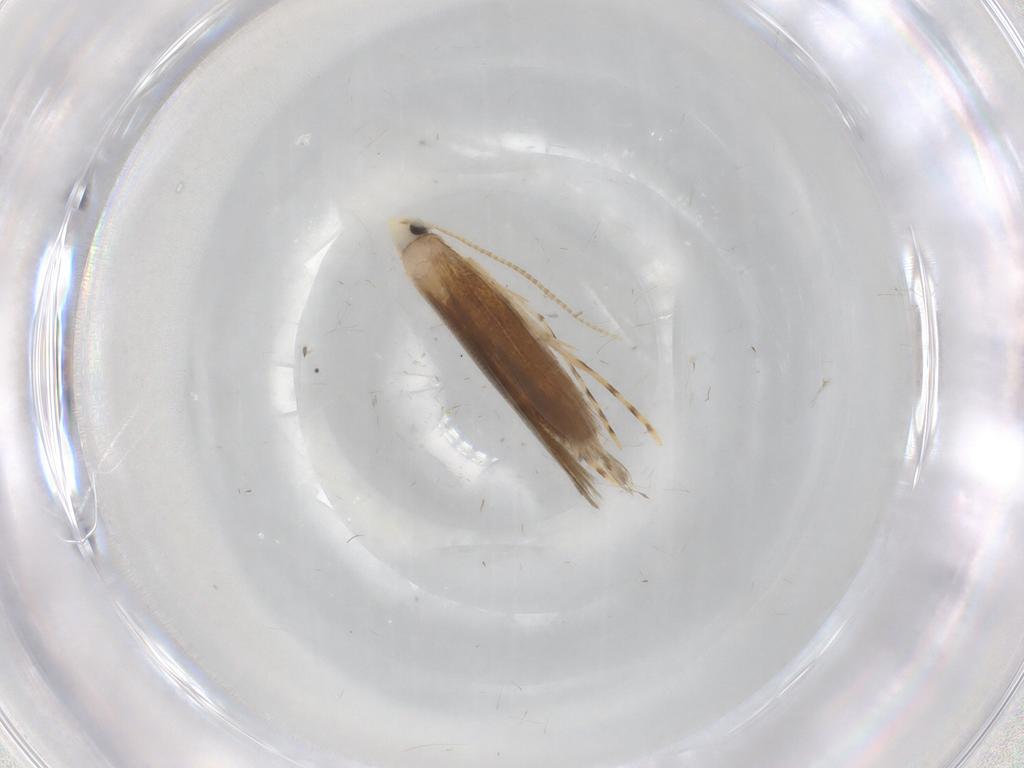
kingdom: Animalia
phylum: Arthropoda
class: Insecta
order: Lepidoptera
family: Lyonetiidae
